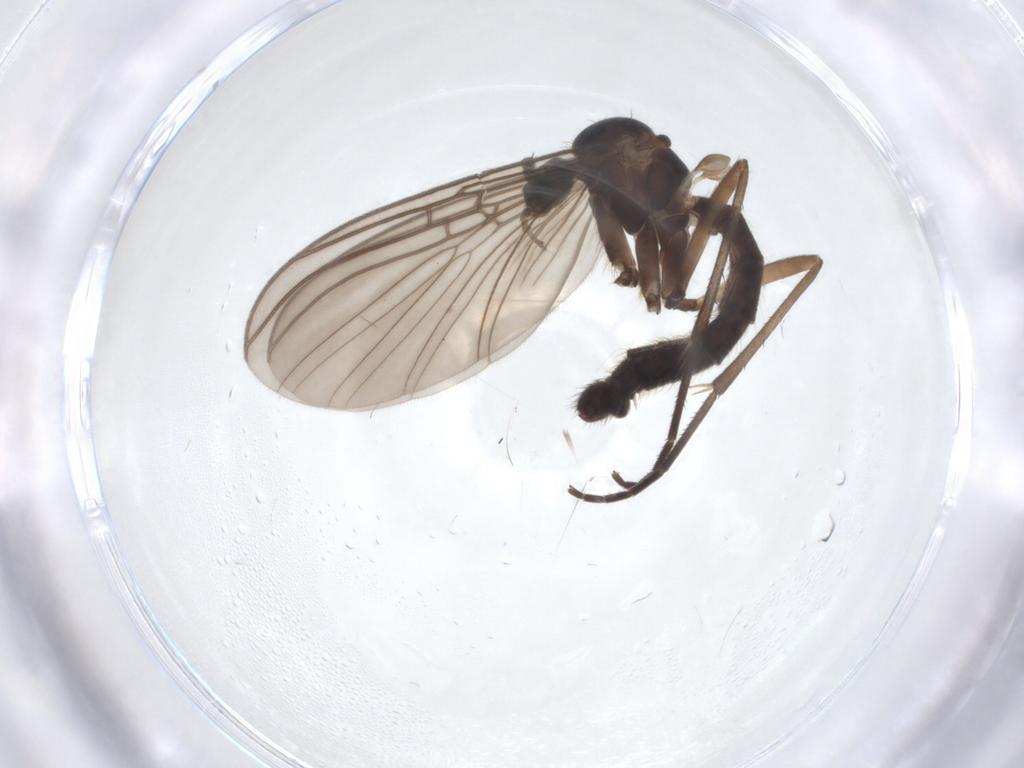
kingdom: Animalia
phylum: Arthropoda
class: Insecta
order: Diptera
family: Mycetophilidae
